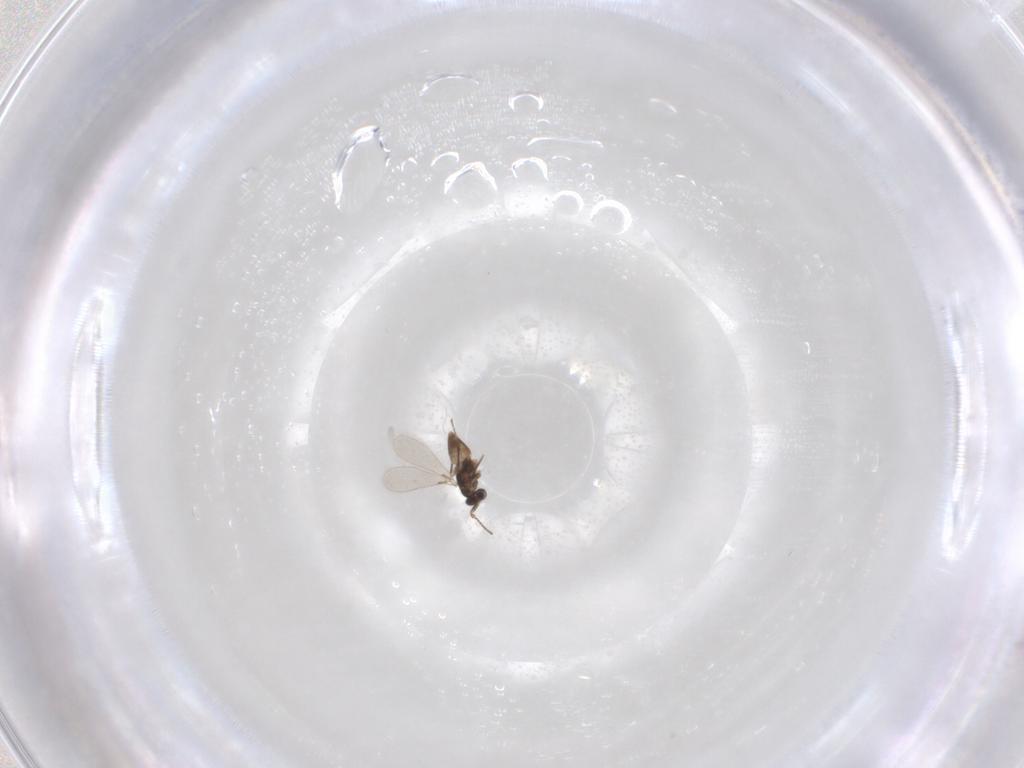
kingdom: Animalia
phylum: Arthropoda
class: Insecta
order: Hymenoptera
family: Mymaridae
